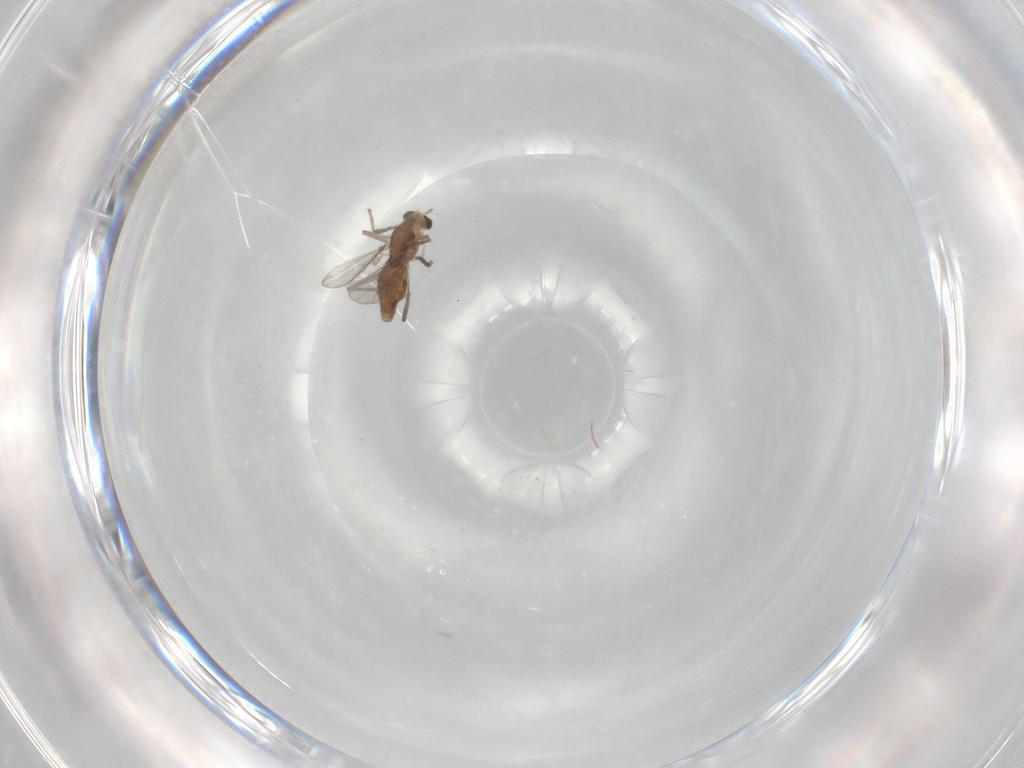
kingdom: Animalia
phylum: Arthropoda
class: Insecta
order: Diptera
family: Chironomidae
